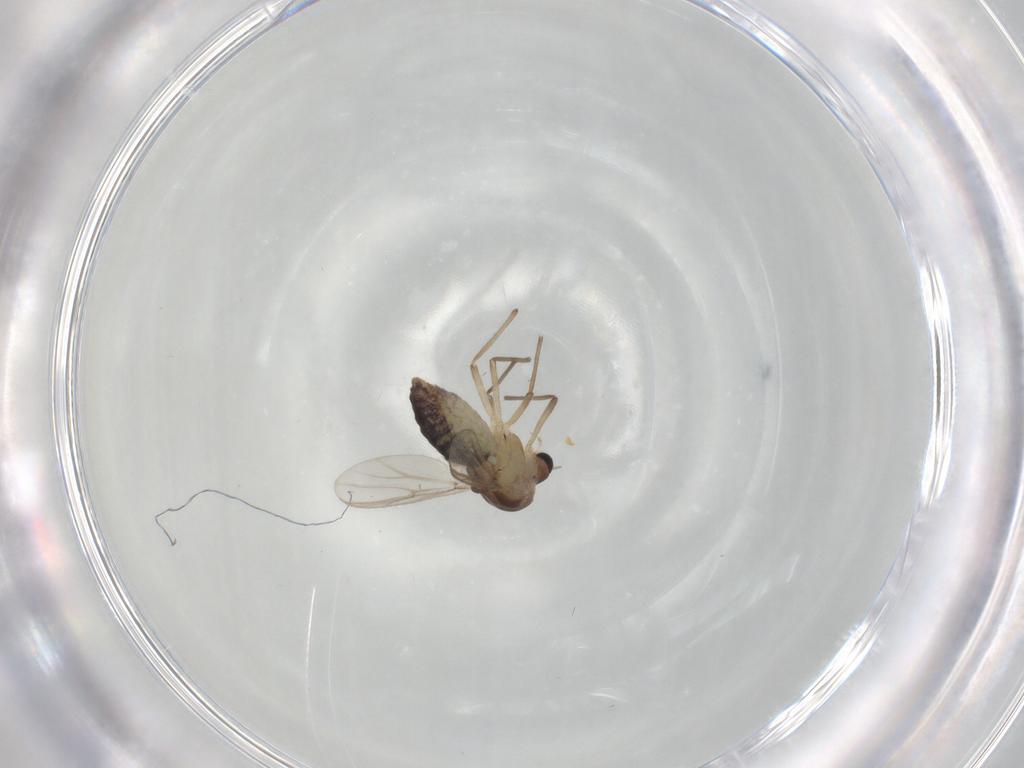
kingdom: Animalia
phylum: Arthropoda
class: Insecta
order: Diptera
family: Ceratopogonidae
